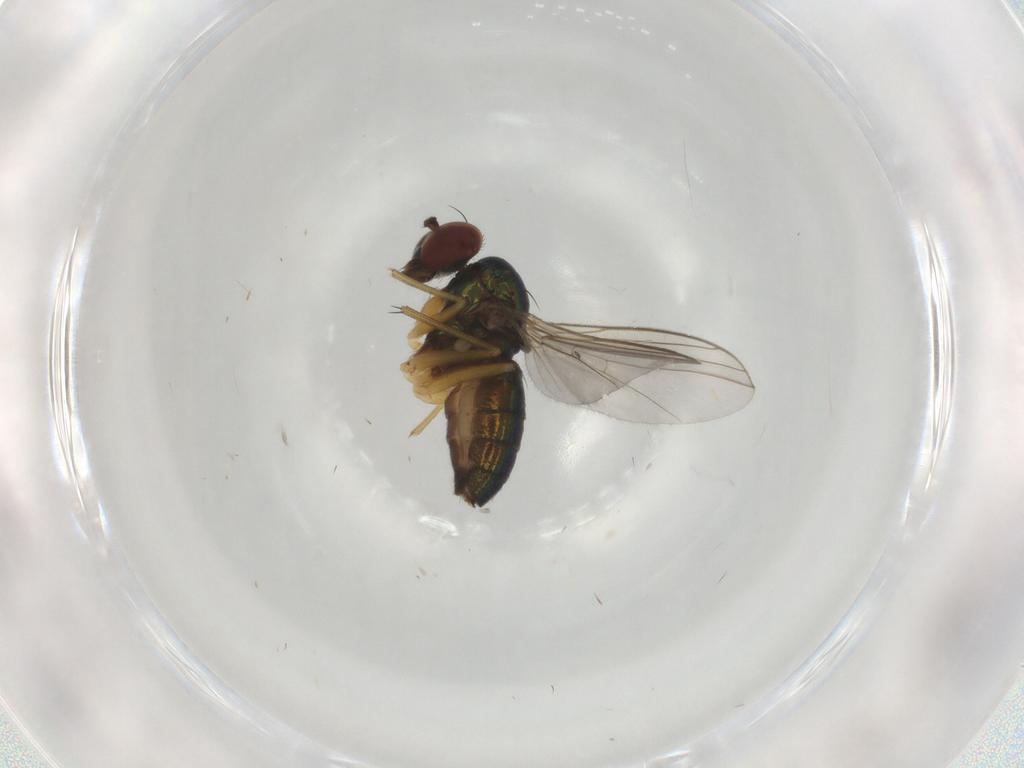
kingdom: Animalia
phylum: Arthropoda
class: Insecta
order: Diptera
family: Dolichopodidae
